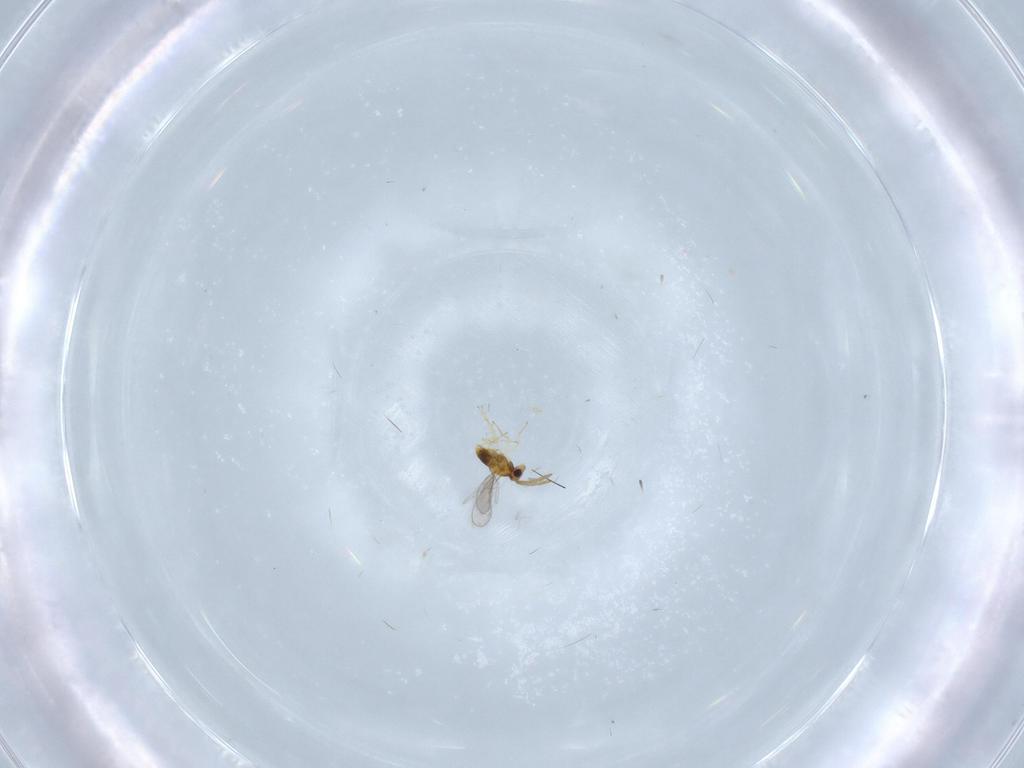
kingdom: Animalia
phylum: Arthropoda
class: Insecta
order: Hymenoptera
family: Aphelinidae
